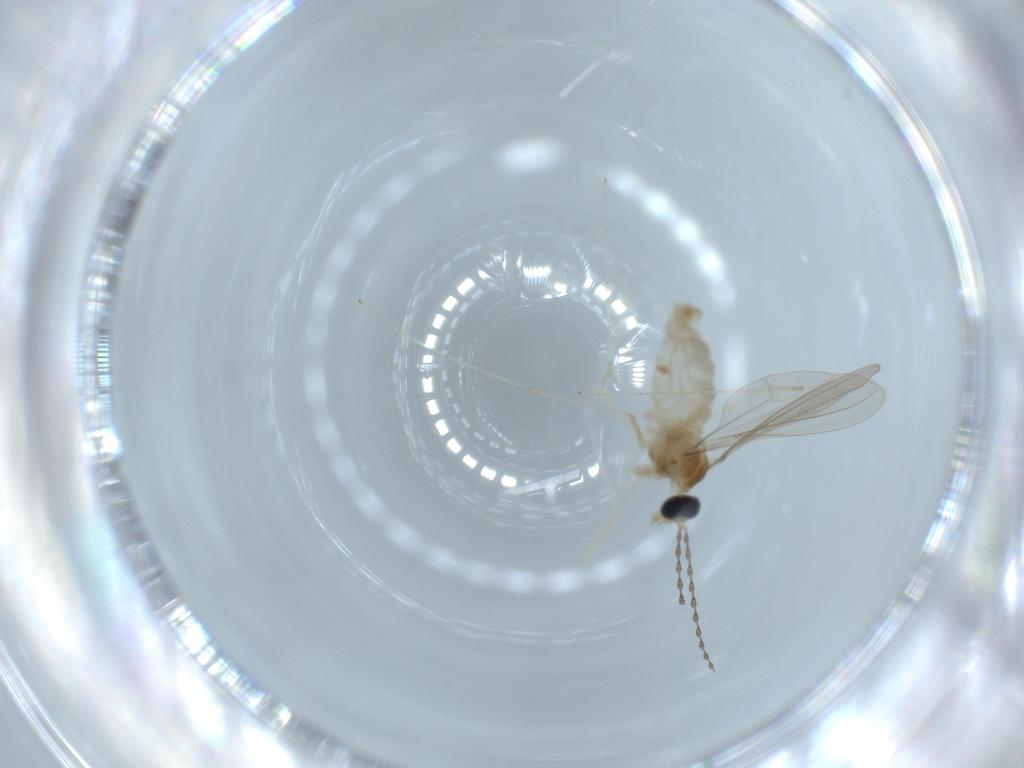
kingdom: Animalia
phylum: Arthropoda
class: Insecta
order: Diptera
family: Cecidomyiidae
